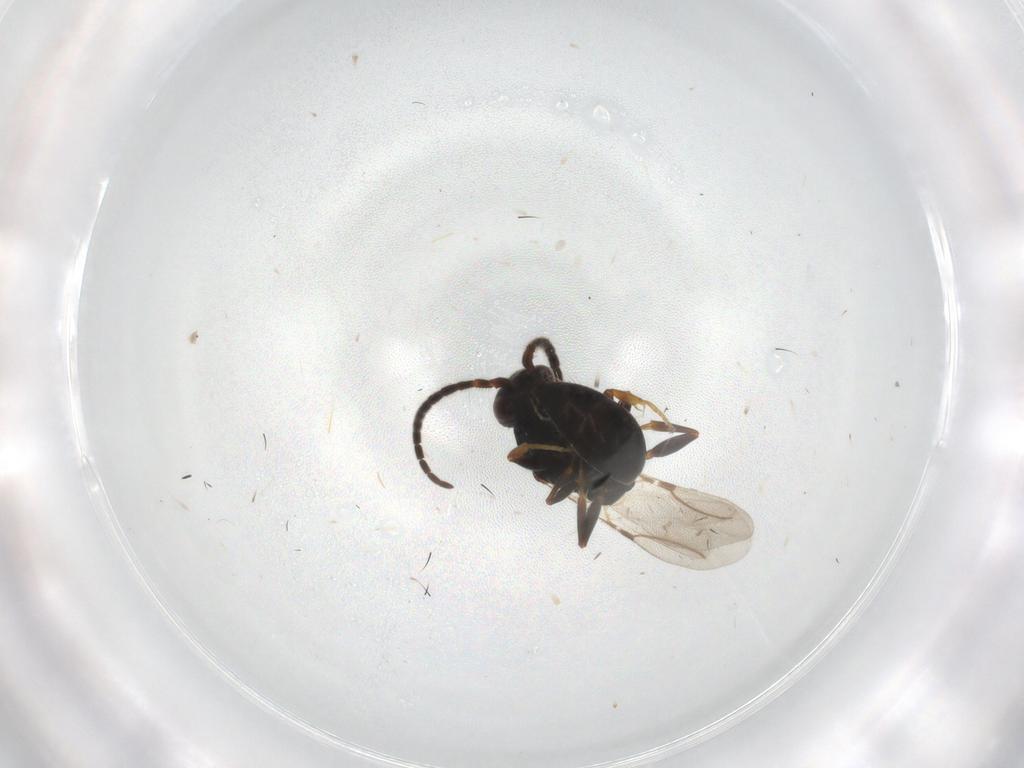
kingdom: Animalia
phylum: Arthropoda
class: Insecta
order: Hymenoptera
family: Bethylidae
